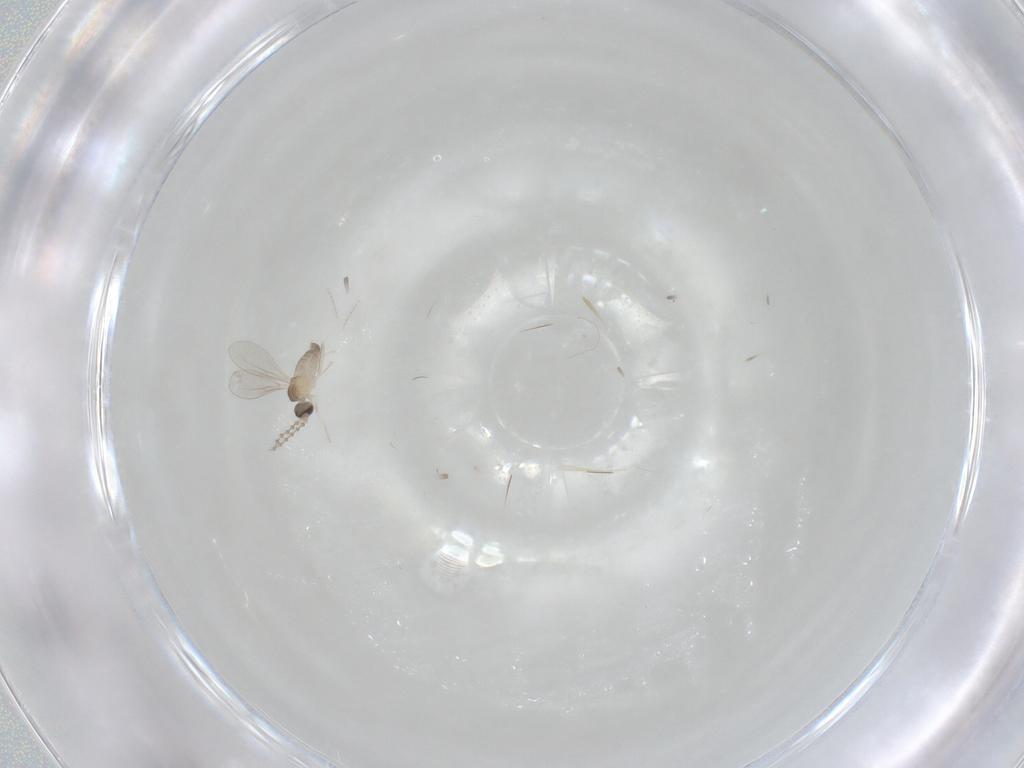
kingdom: Animalia
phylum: Arthropoda
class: Insecta
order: Diptera
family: Cecidomyiidae
